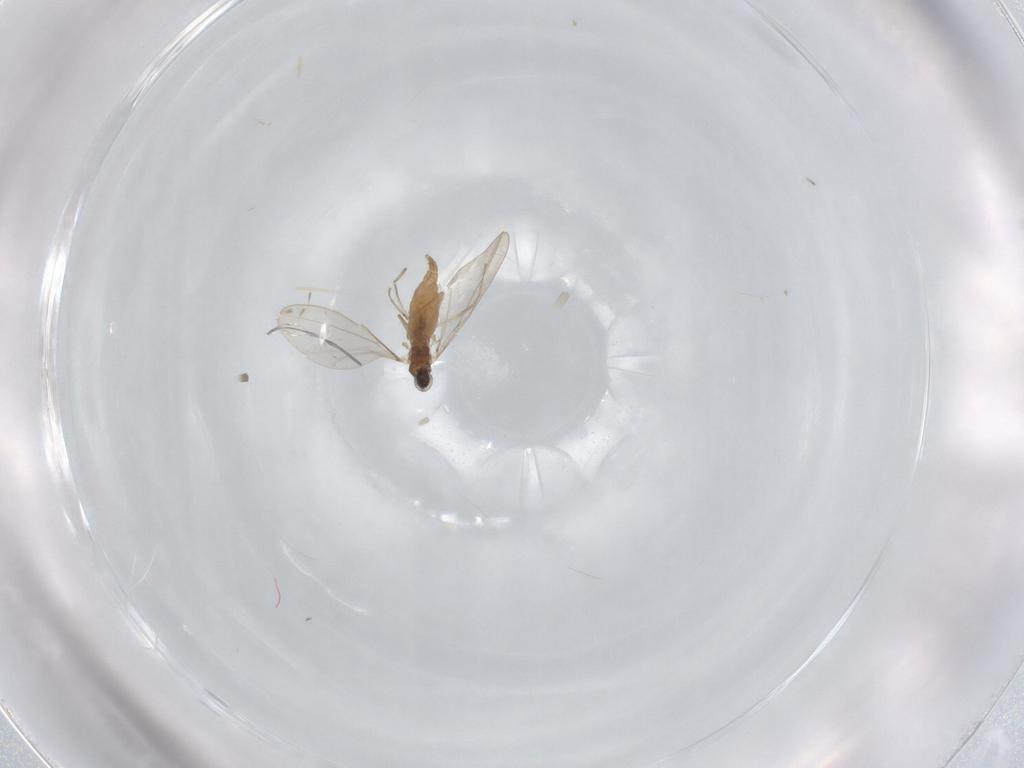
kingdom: Animalia
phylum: Arthropoda
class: Insecta
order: Diptera
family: Cecidomyiidae
